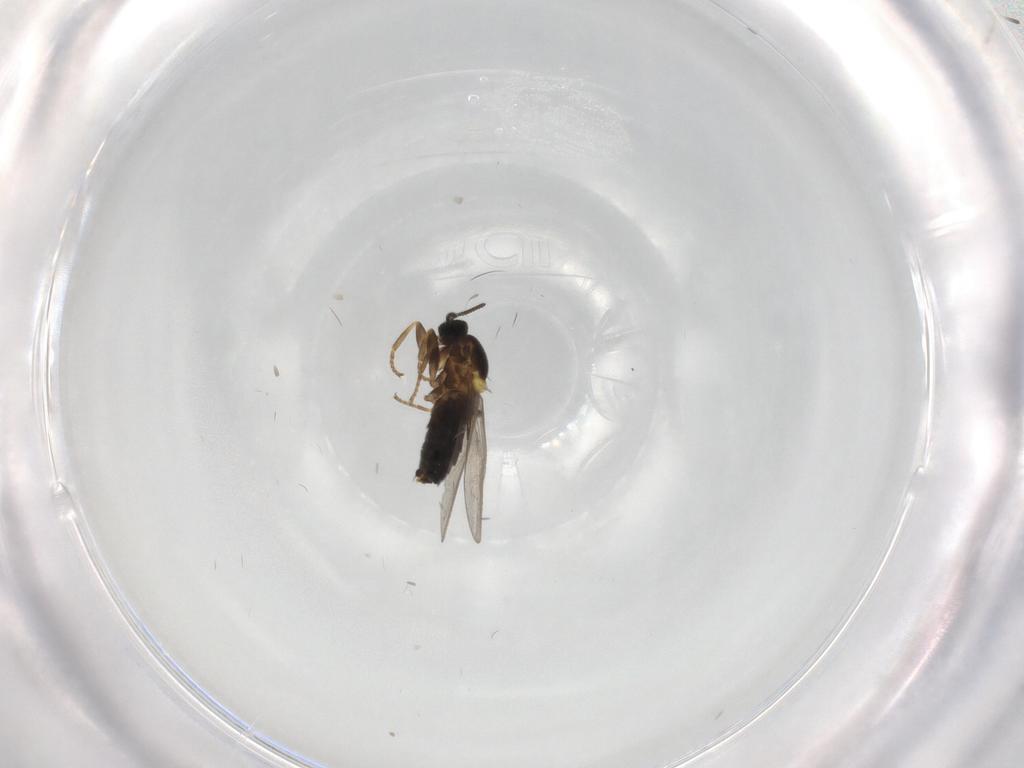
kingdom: Animalia
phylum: Arthropoda
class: Insecta
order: Diptera
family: Scatopsidae
